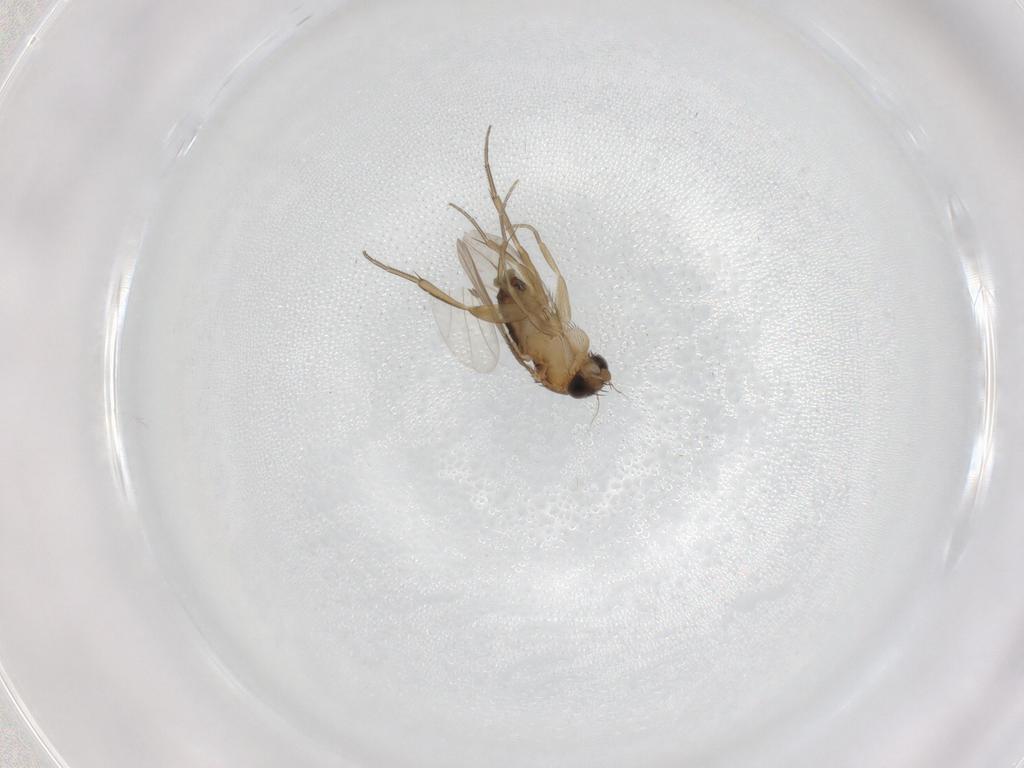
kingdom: Animalia
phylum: Arthropoda
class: Insecta
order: Diptera
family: Phoridae
